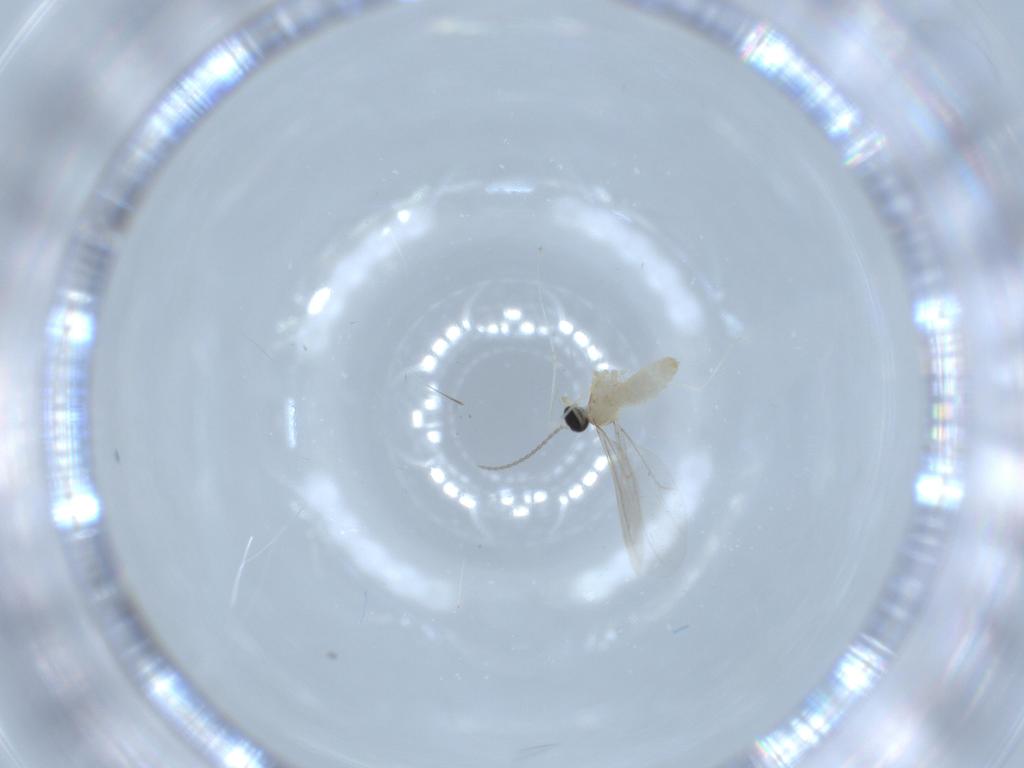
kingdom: Animalia
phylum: Arthropoda
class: Insecta
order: Diptera
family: Cecidomyiidae
